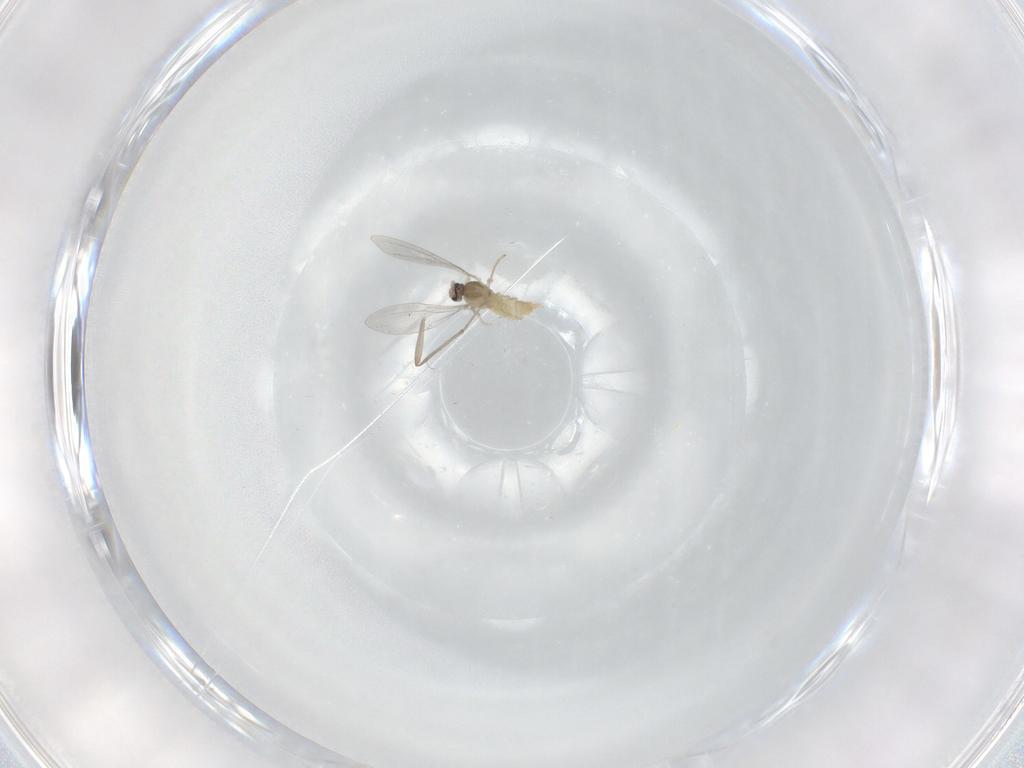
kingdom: Animalia
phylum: Arthropoda
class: Insecta
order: Diptera
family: Cecidomyiidae
